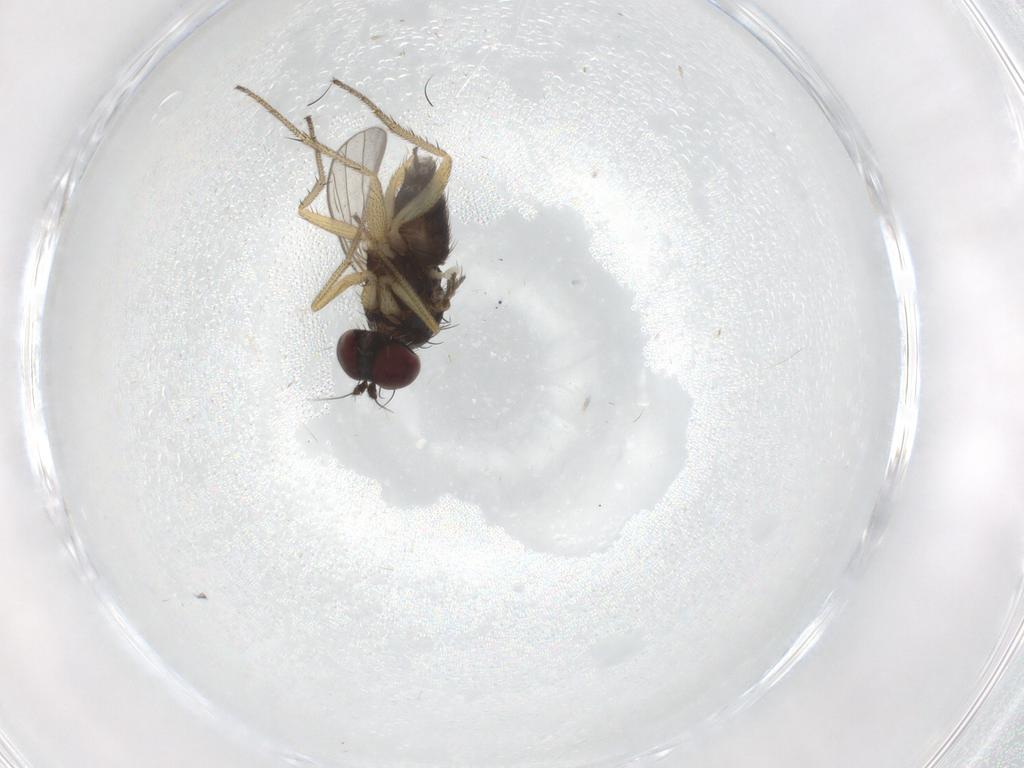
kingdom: Animalia
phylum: Arthropoda
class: Insecta
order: Diptera
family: Dolichopodidae
